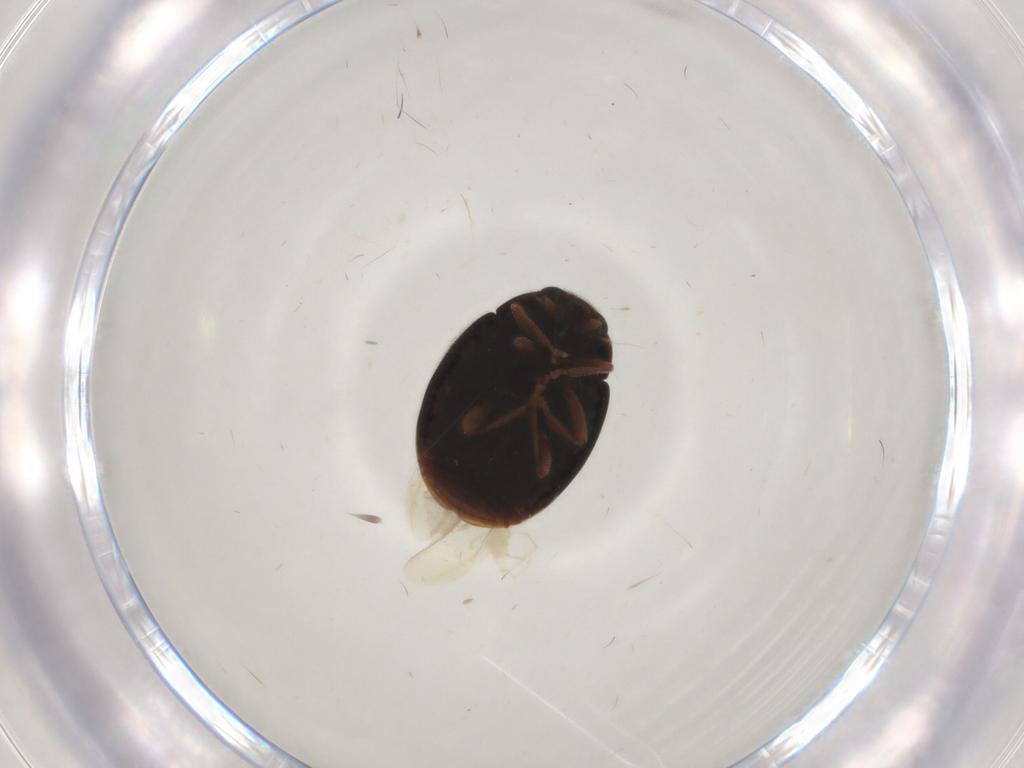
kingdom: Animalia
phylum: Arthropoda
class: Insecta
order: Coleoptera
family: Coccinellidae
